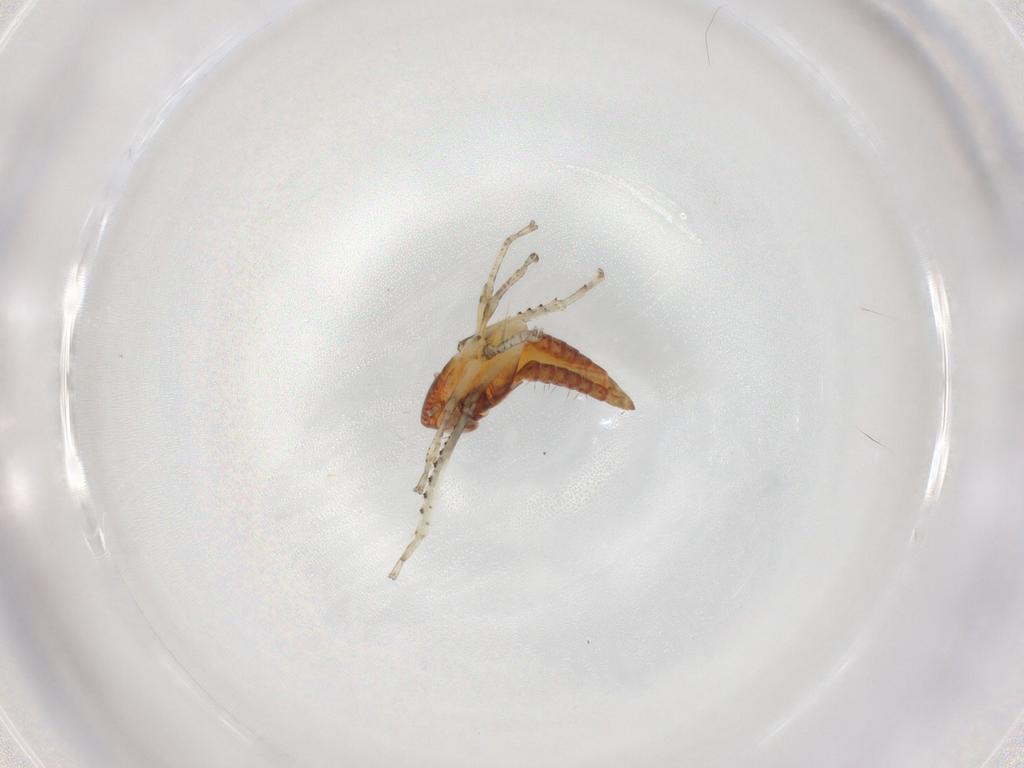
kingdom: Animalia
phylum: Arthropoda
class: Insecta
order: Hemiptera
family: Cicadellidae
